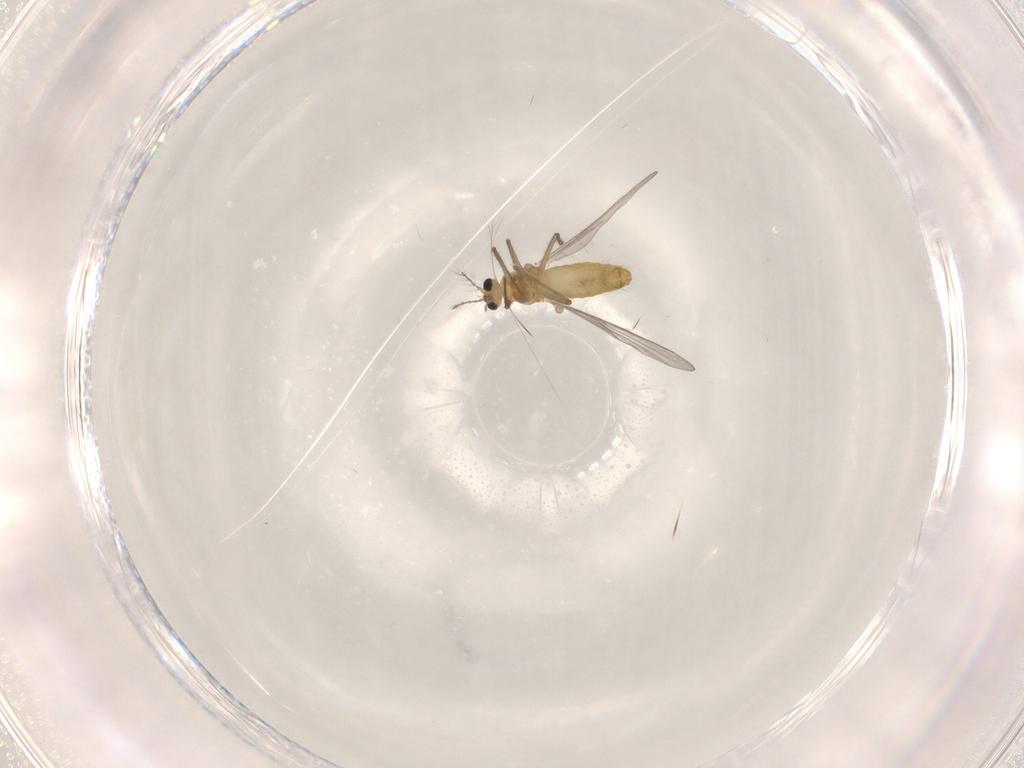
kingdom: Animalia
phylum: Arthropoda
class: Insecta
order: Diptera
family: Chironomidae
